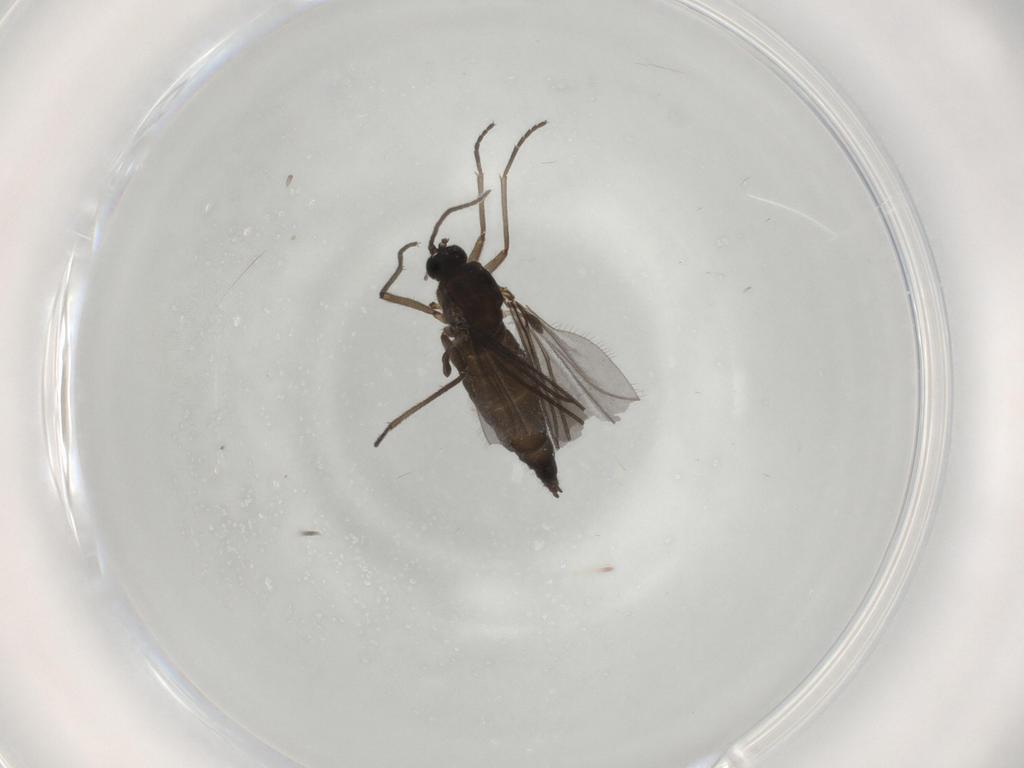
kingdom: Animalia
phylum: Arthropoda
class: Insecta
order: Diptera
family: Sciaridae
